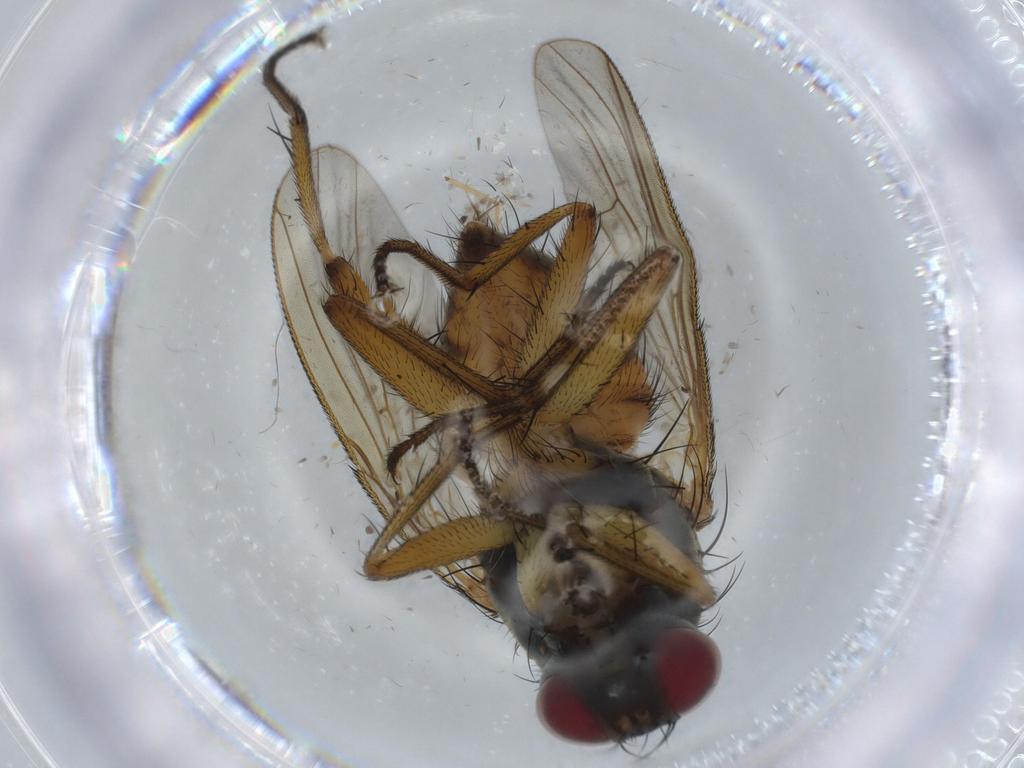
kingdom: Animalia
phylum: Arthropoda
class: Insecta
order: Diptera
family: Muscidae
